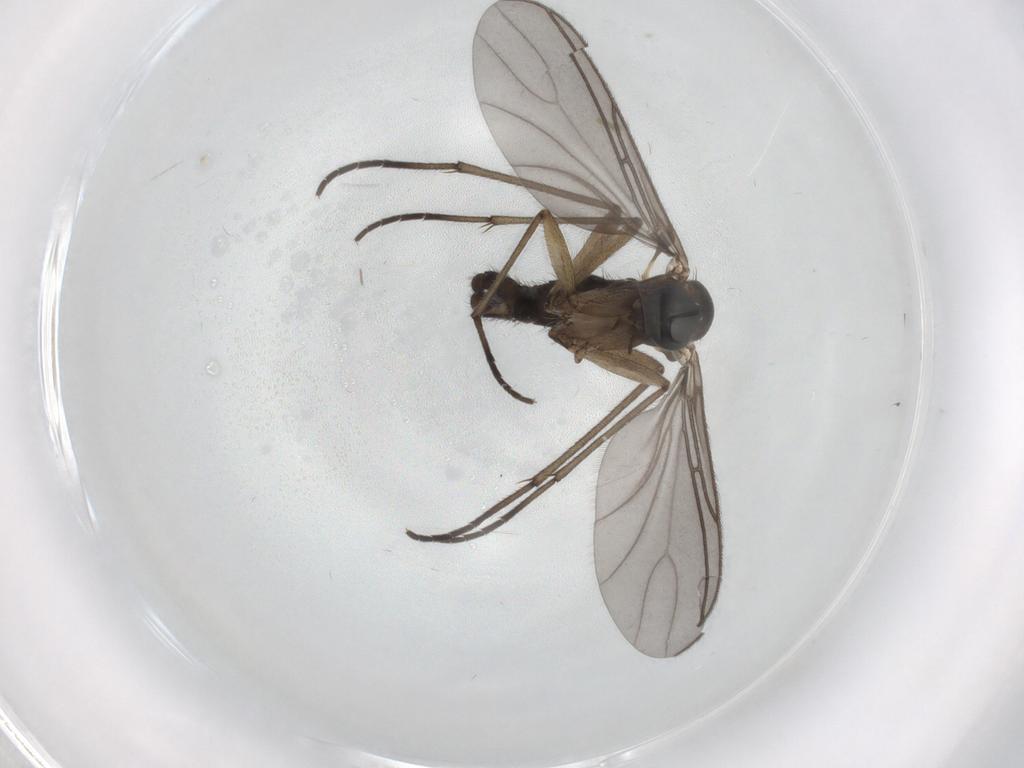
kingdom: Animalia
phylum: Arthropoda
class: Insecta
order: Diptera
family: Sciaridae
